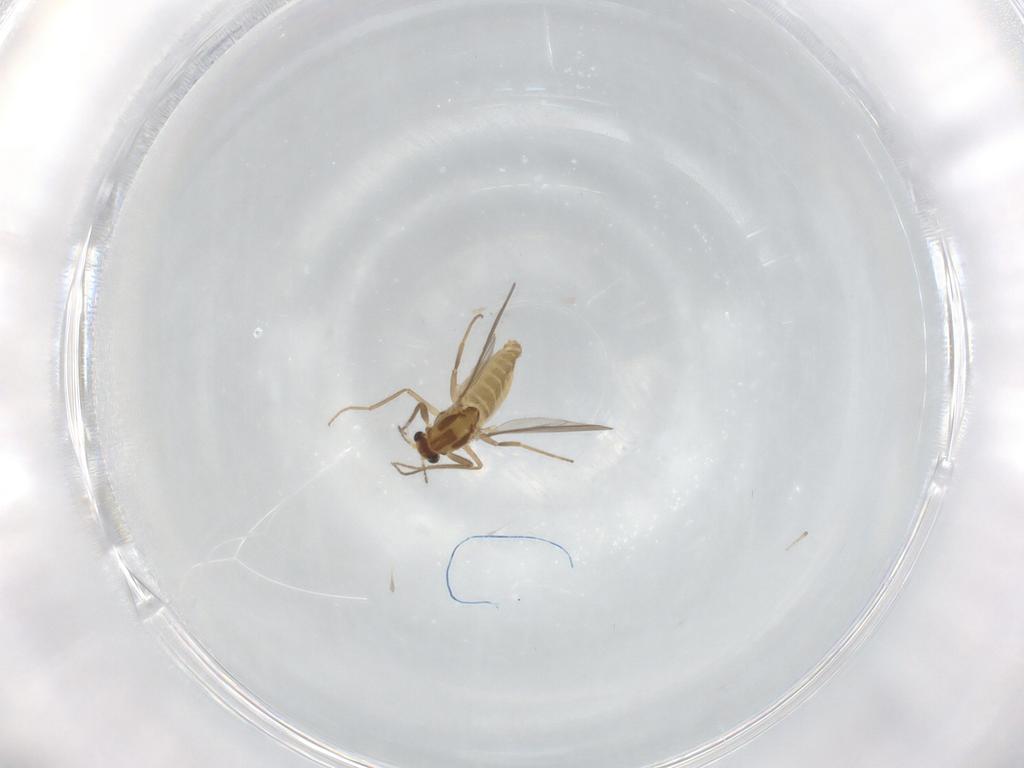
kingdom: Animalia
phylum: Arthropoda
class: Insecta
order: Diptera
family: Chironomidae
